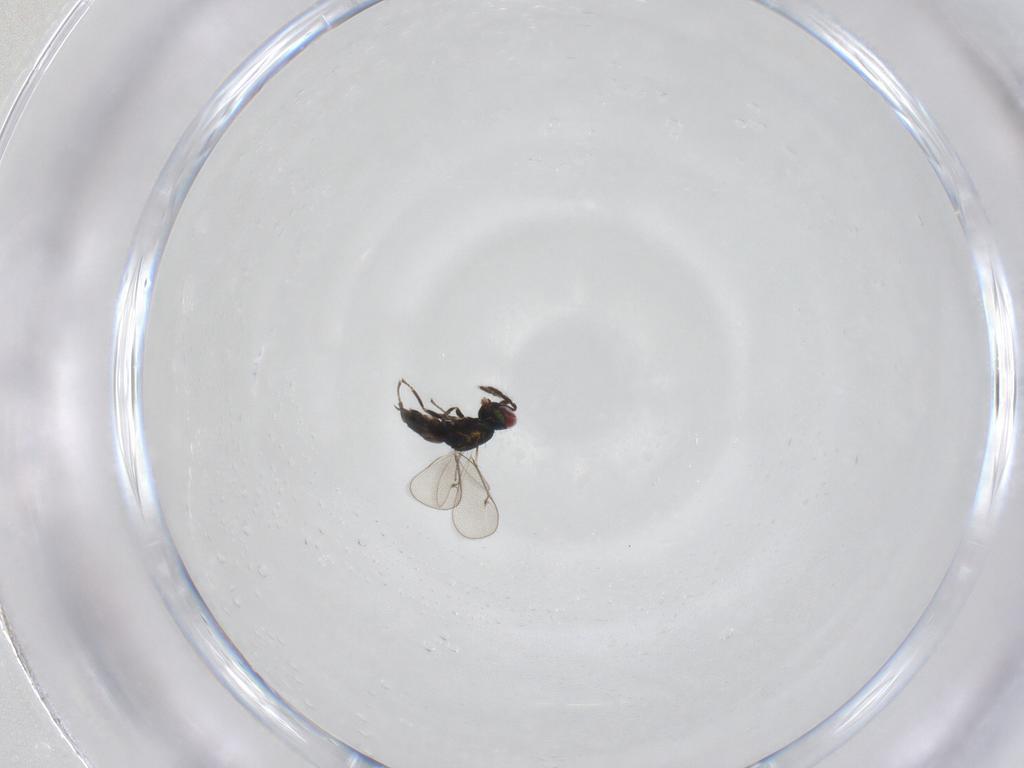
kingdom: Animalia
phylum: Arthropoda
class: Insecta
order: Hymenoptera
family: Eulophidae
